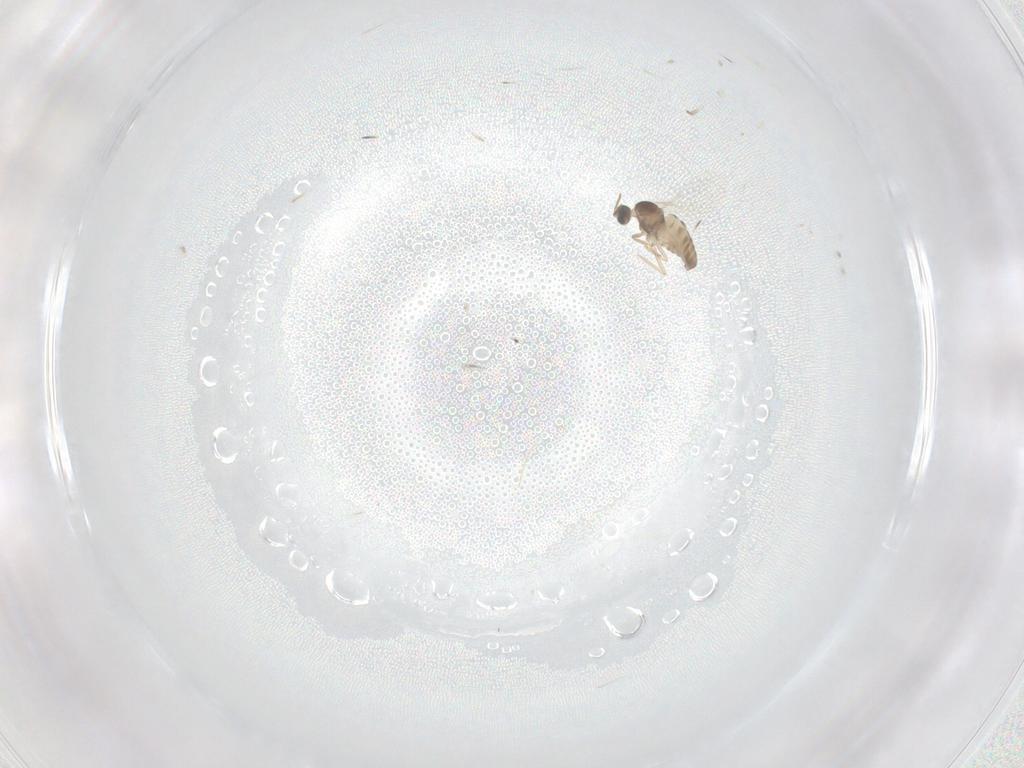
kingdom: Animalia
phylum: Arthropoda
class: Insecta
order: Diptera
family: Cecidomyiidae
